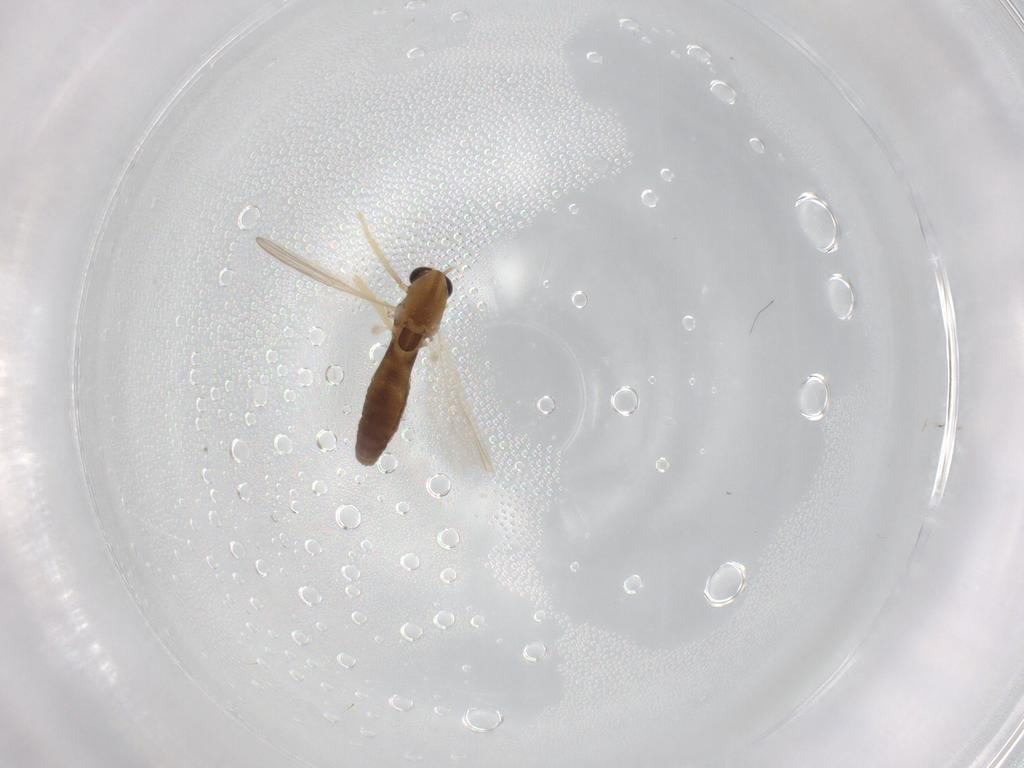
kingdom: Animalia
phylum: Arthropoda
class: Insecta
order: Diptera
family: Chironomidae
